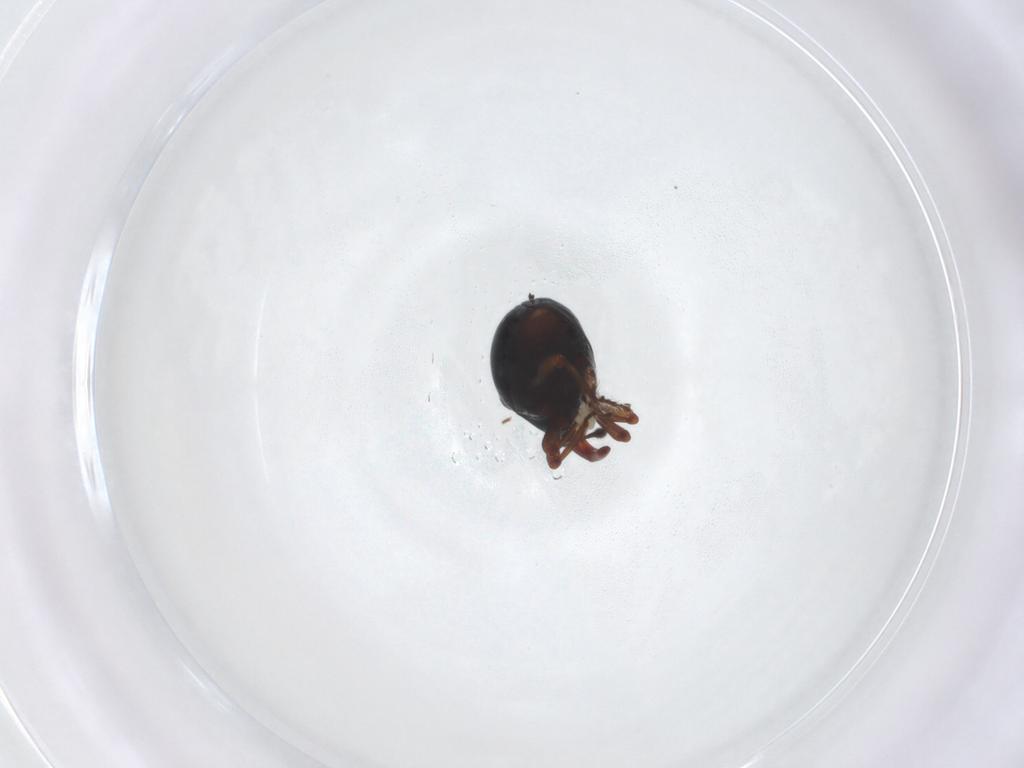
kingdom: Animalia
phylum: Arthropoda
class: Insecta
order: Coleoptera
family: Curculionidae
